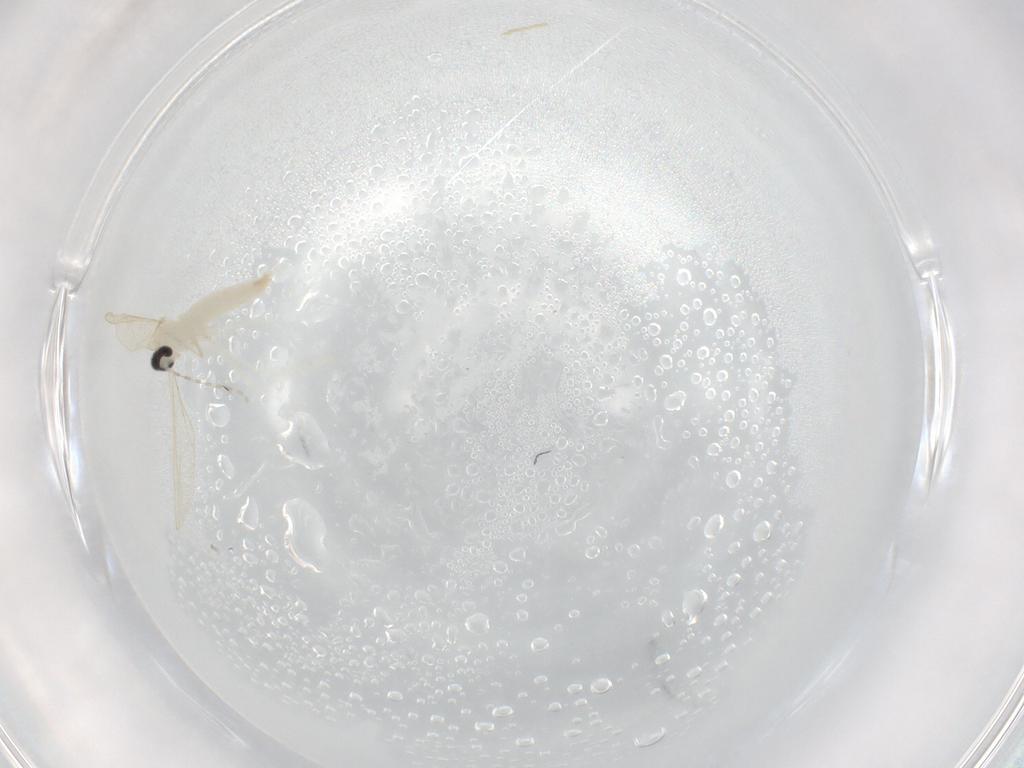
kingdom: Animalia
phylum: Arthropoda
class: Insecta
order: Diptera
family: Cecidomyiidae
